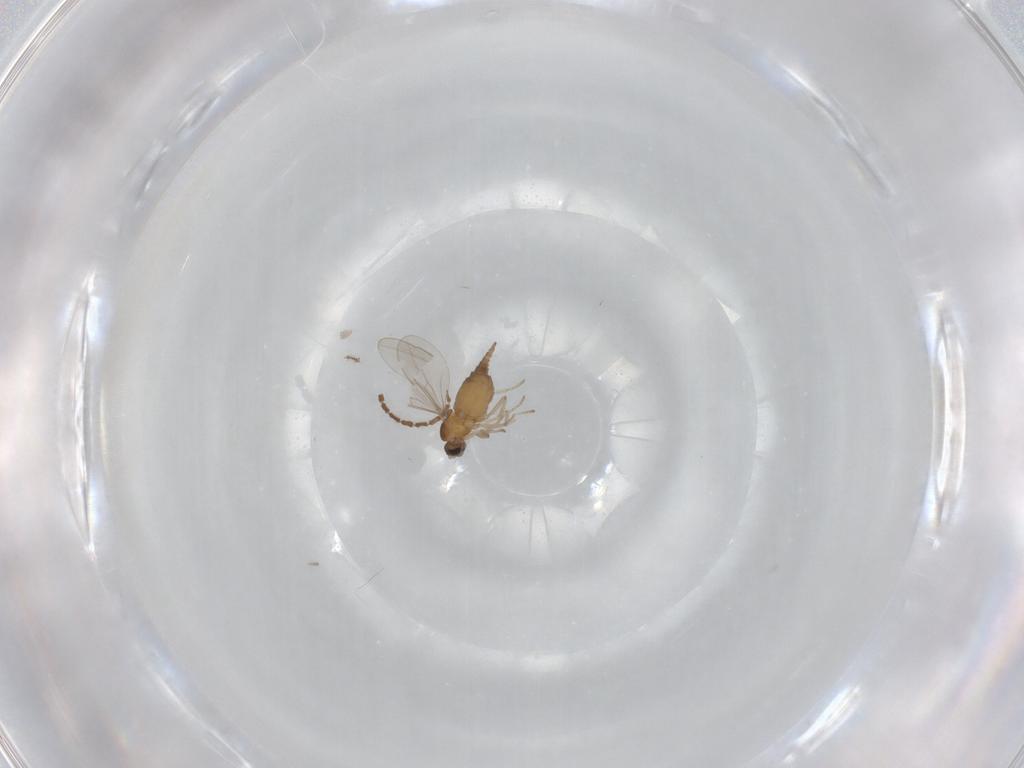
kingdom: Animalia
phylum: Arthropoda
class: Insecta
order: Diptera
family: Cecidomyiidae
